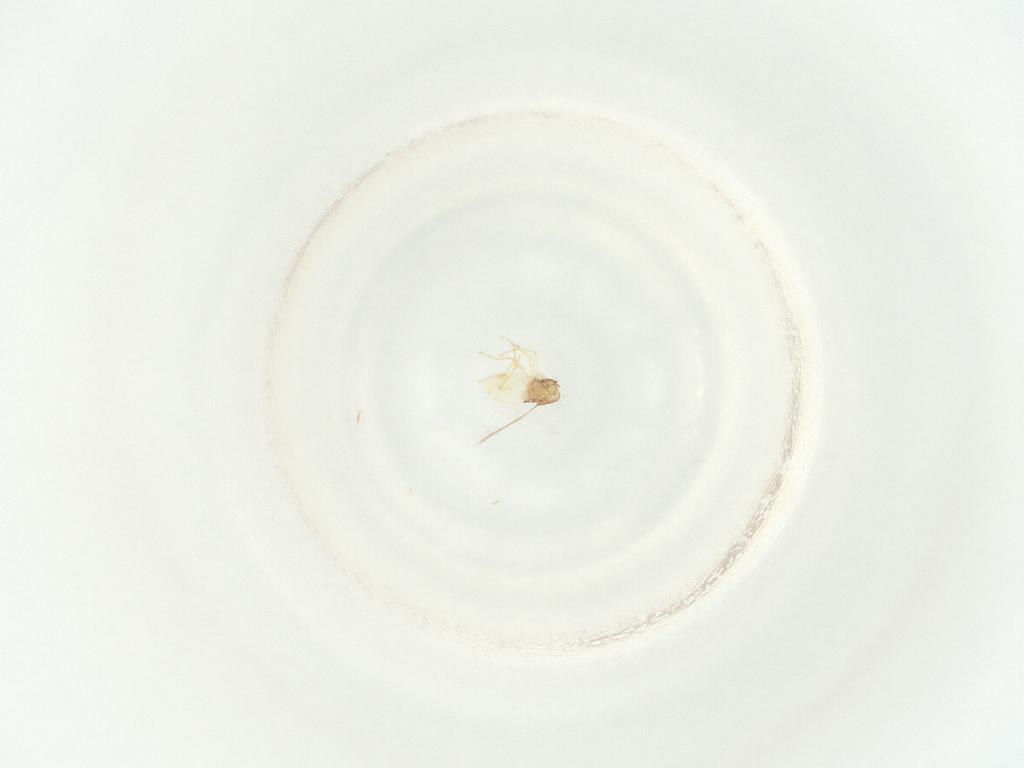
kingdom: Animalia
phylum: Arthropoda
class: Insecta
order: Hymenoptera
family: Aphelinidae
